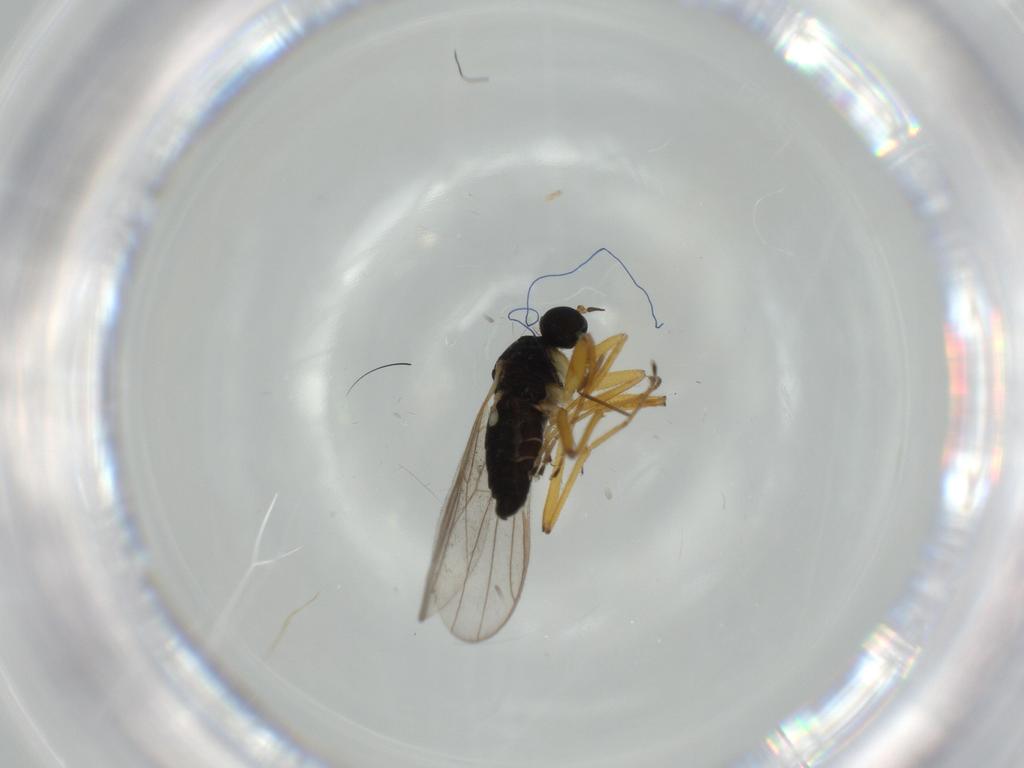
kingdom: Animalia
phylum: Arthropoda
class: Insecta
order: Diptera
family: Chironomidae
